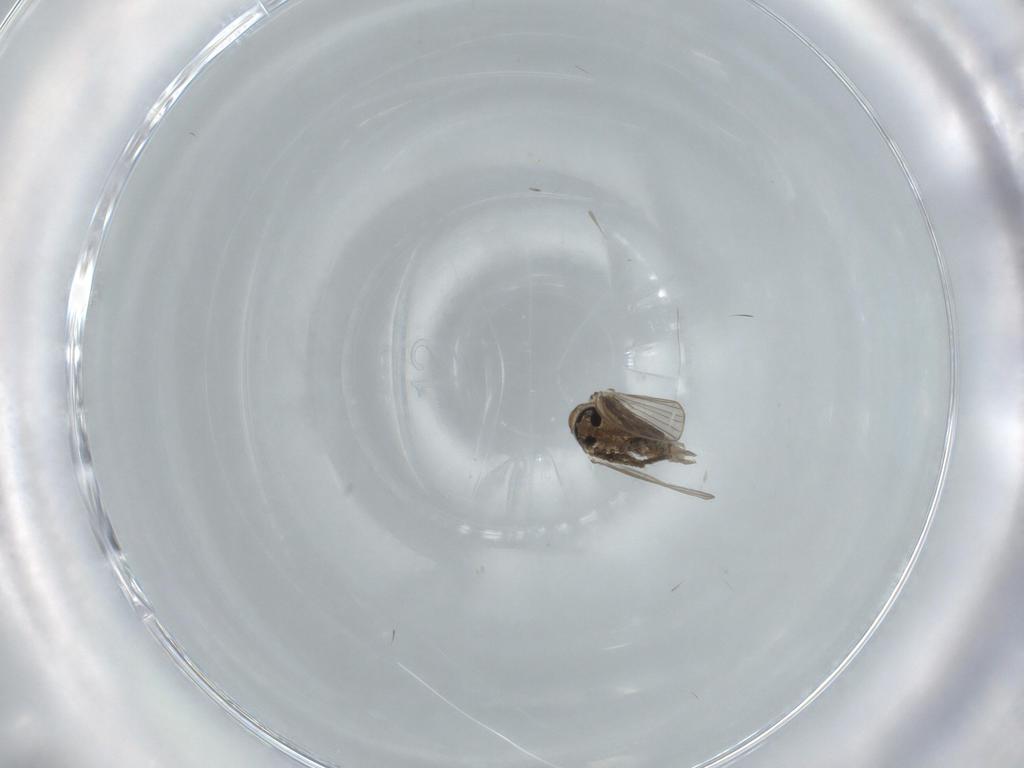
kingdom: Animalia
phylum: Arthropoda
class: Insecta
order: Diptera
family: Psychodidae
